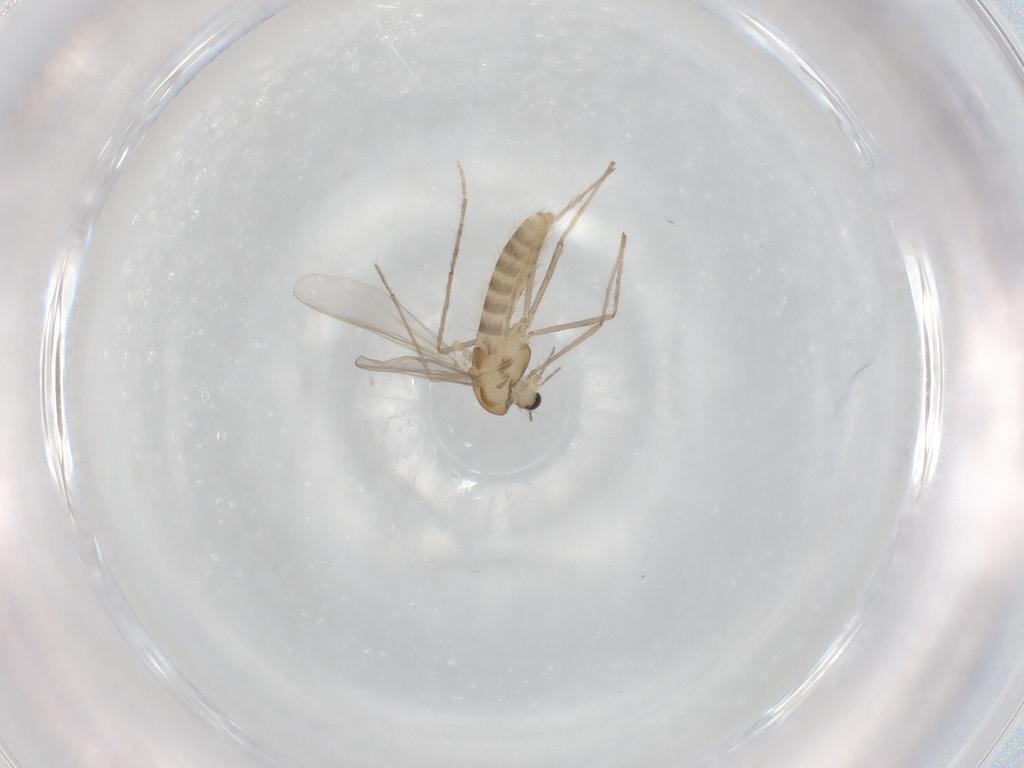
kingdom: Animalia
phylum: Arthropoda
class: Insecta
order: Diptera
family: Chironomidae
